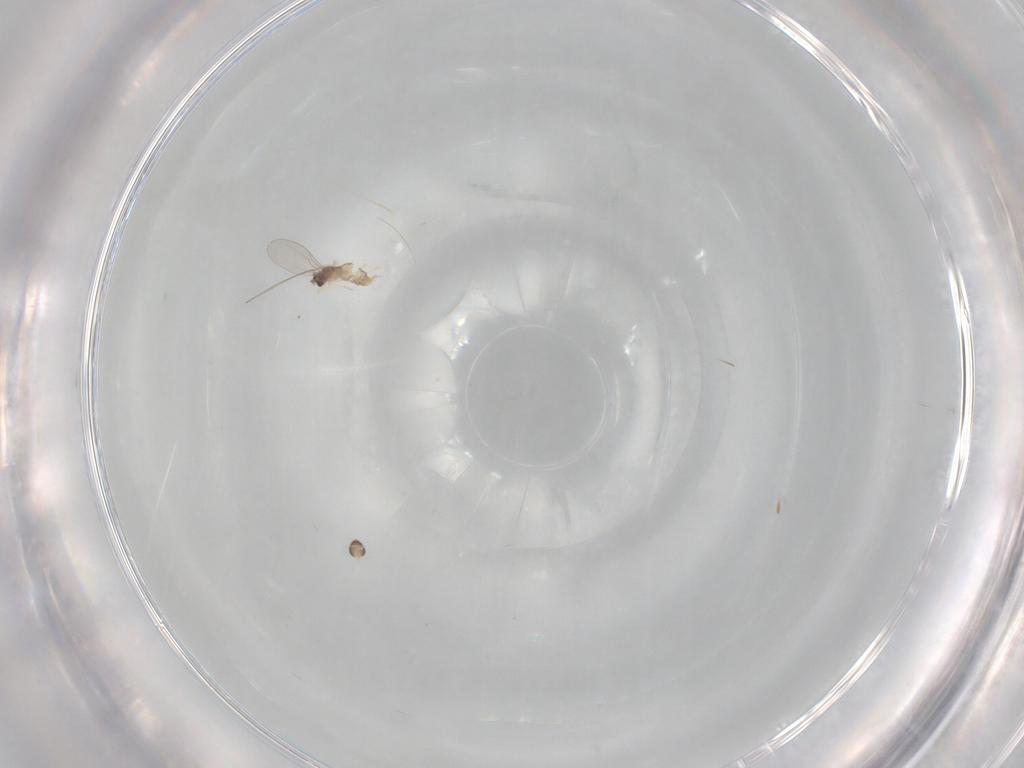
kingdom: Animalia
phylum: Arthropoda
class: Insecta
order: Diptera
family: Cecidomyiidae
